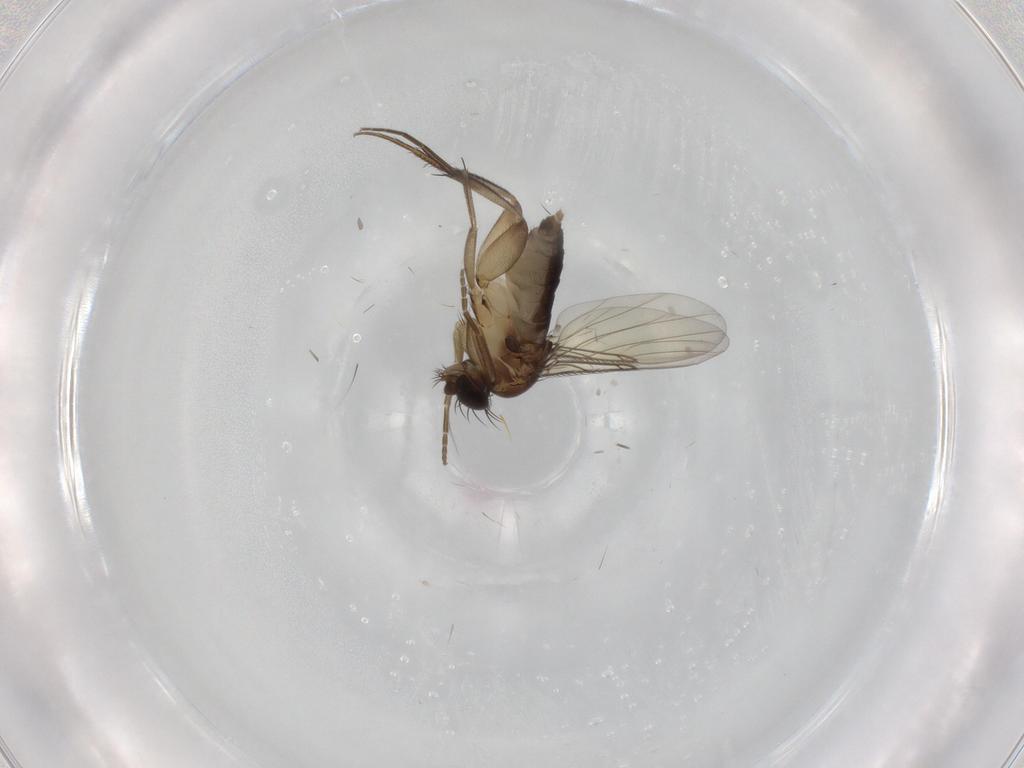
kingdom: Animalia
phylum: Arthropoda
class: Insecta
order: Diptera
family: Phoridae
